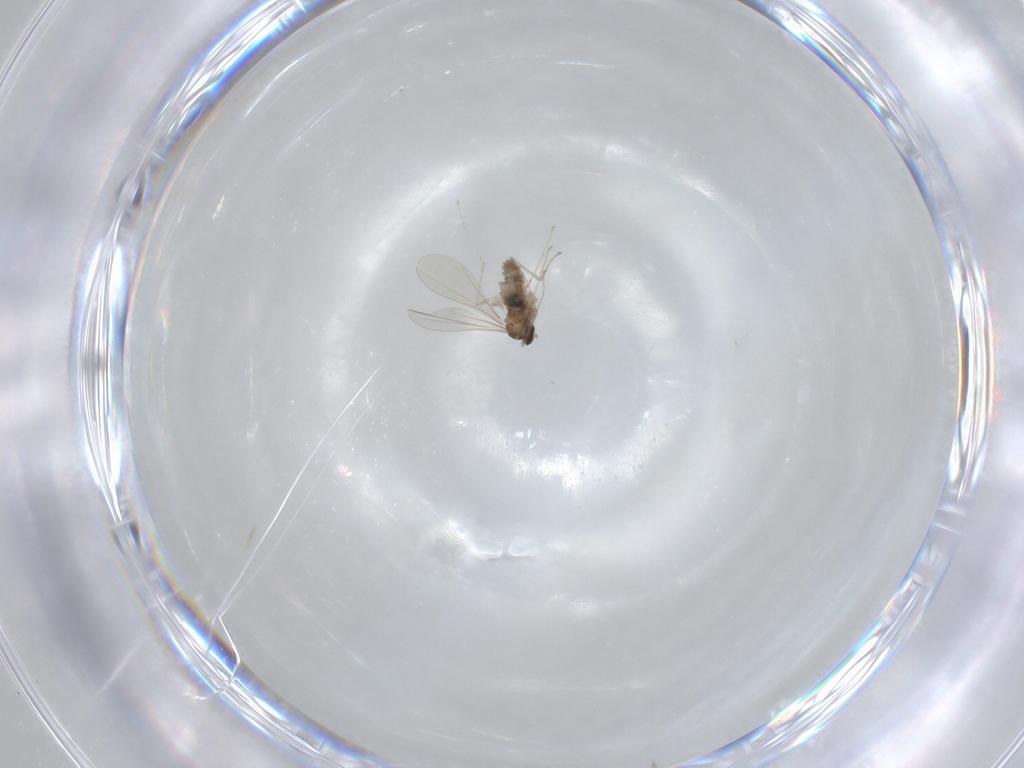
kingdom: Animalia
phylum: Arthropoda
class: Insecta
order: Diptera
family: Cecidomyiidae
